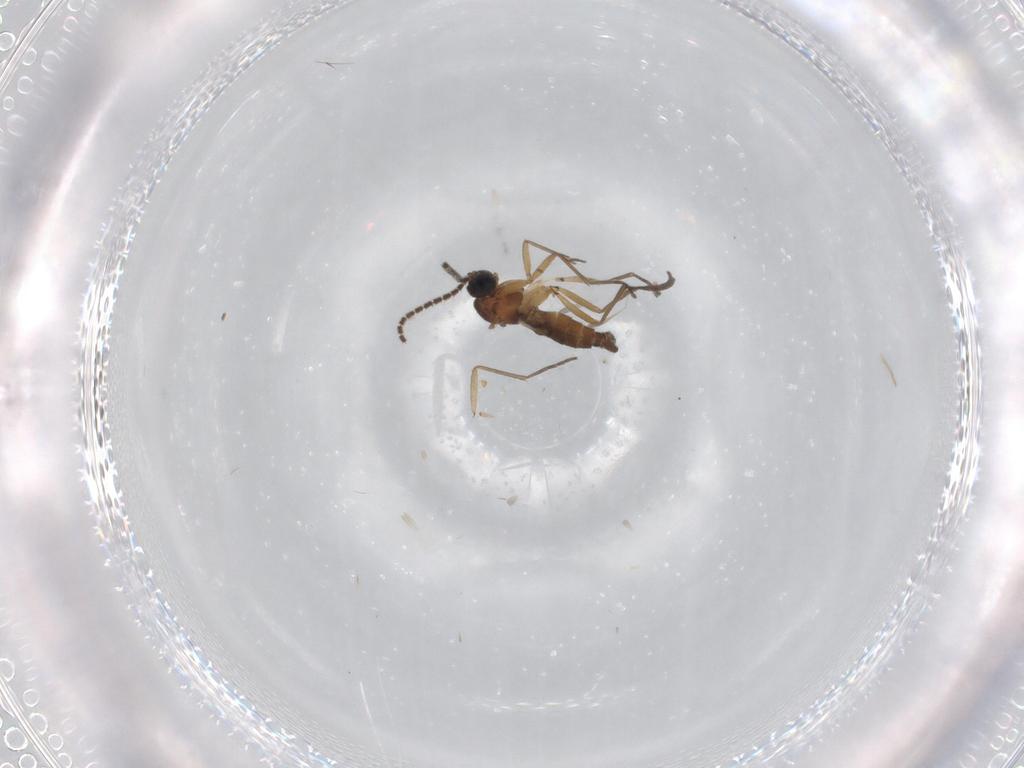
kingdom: Animalia
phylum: Arthropoda
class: Insecta
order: Diptera
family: Sciaridae
